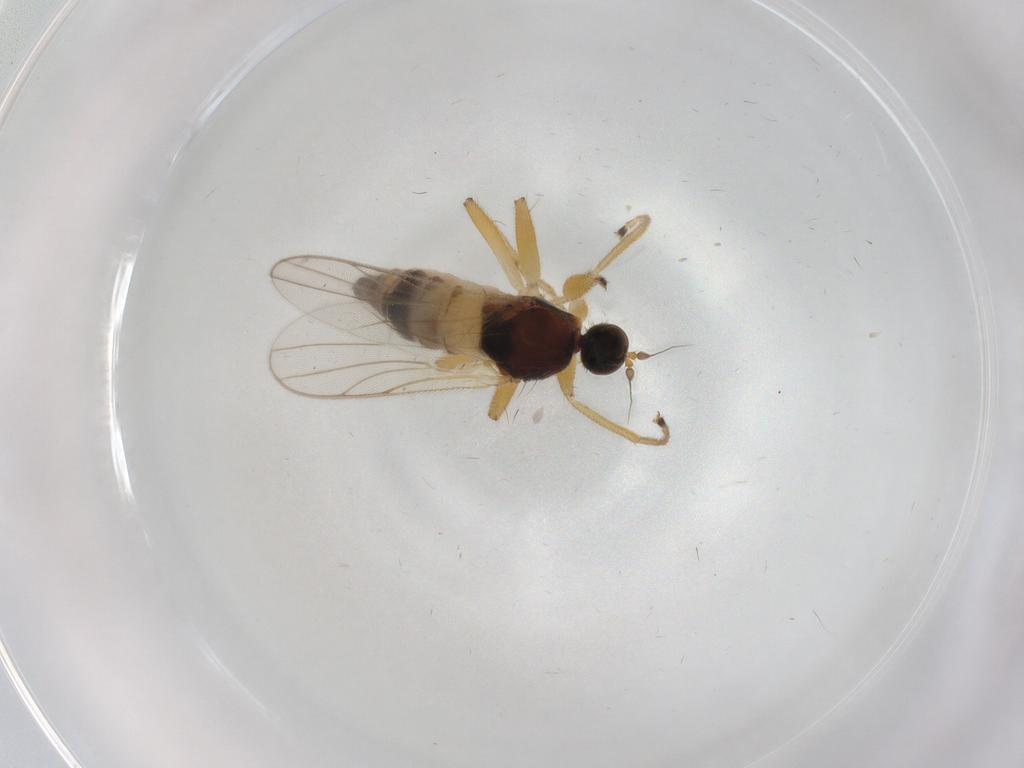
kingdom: Animalia
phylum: Arthropoda
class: Insecta
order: Diptera
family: Hybotidae
